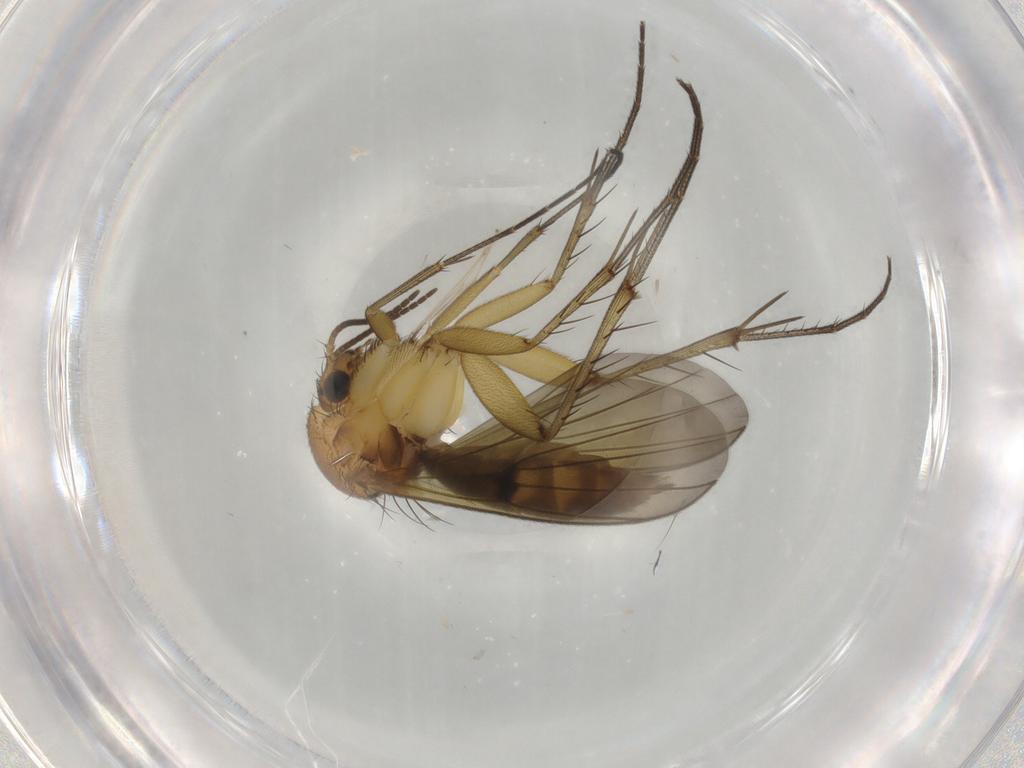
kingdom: Animalia
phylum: Arthropoda
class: Insecta
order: Diptera
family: Mycetophilidae
